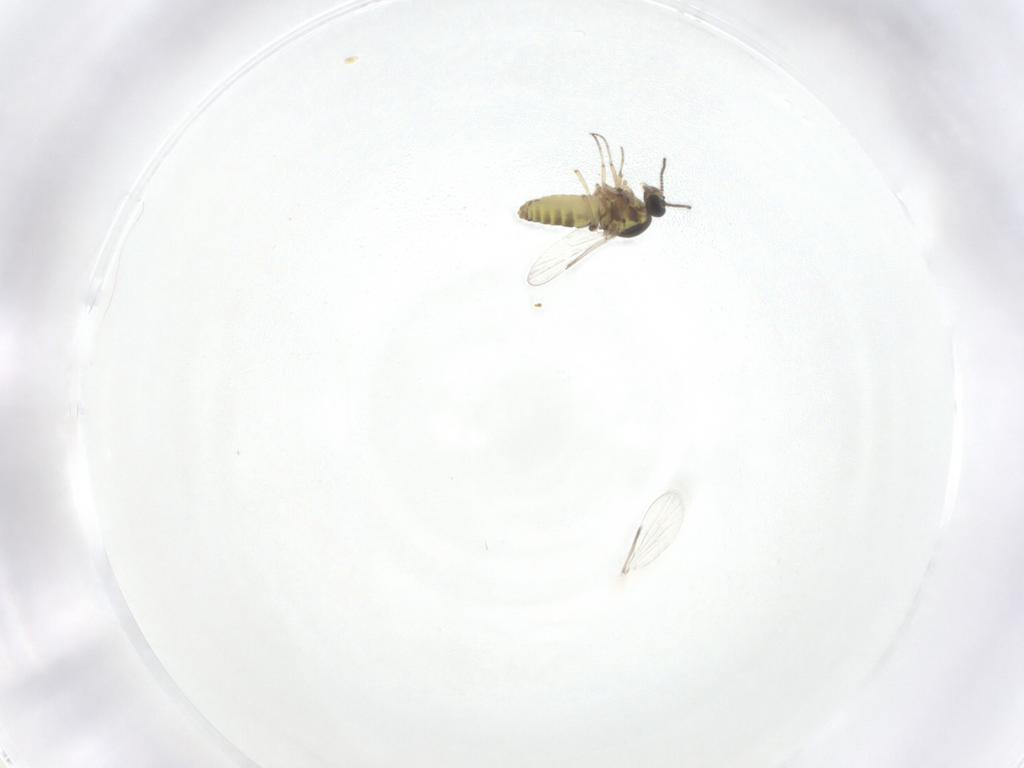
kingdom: Animalia
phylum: Arthropoda
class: Insecta
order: Diptera
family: Ceratopogonidae
